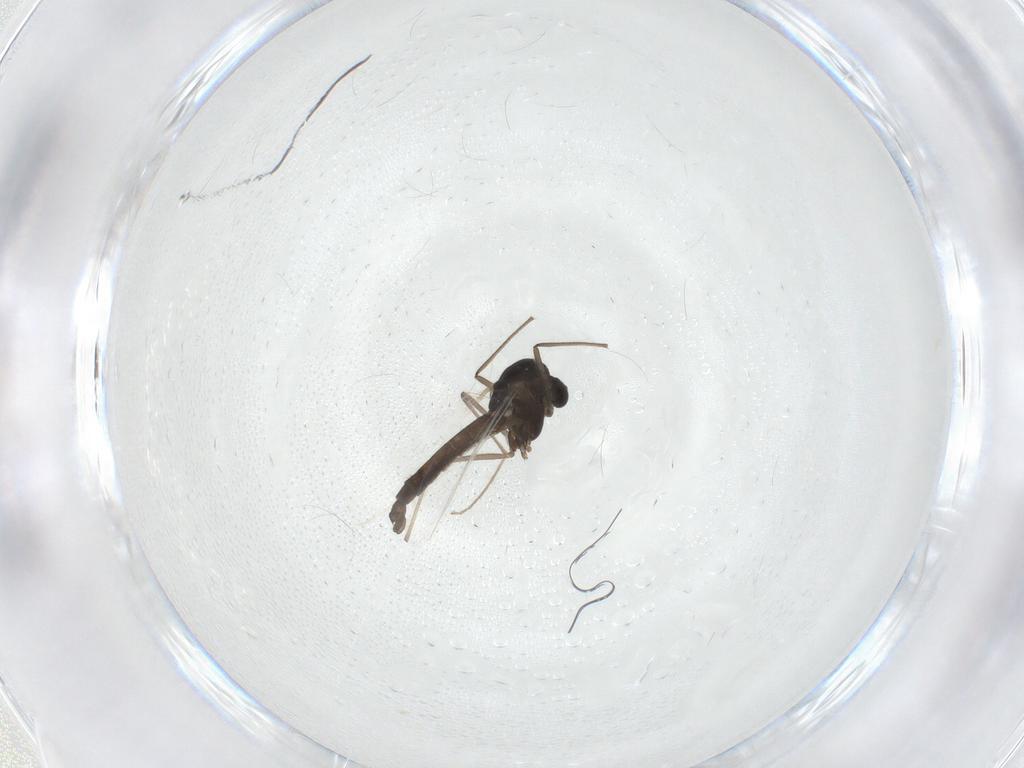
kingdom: Animalia
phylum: Arthropoda
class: Insecta
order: Diptera
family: Chironomidae
